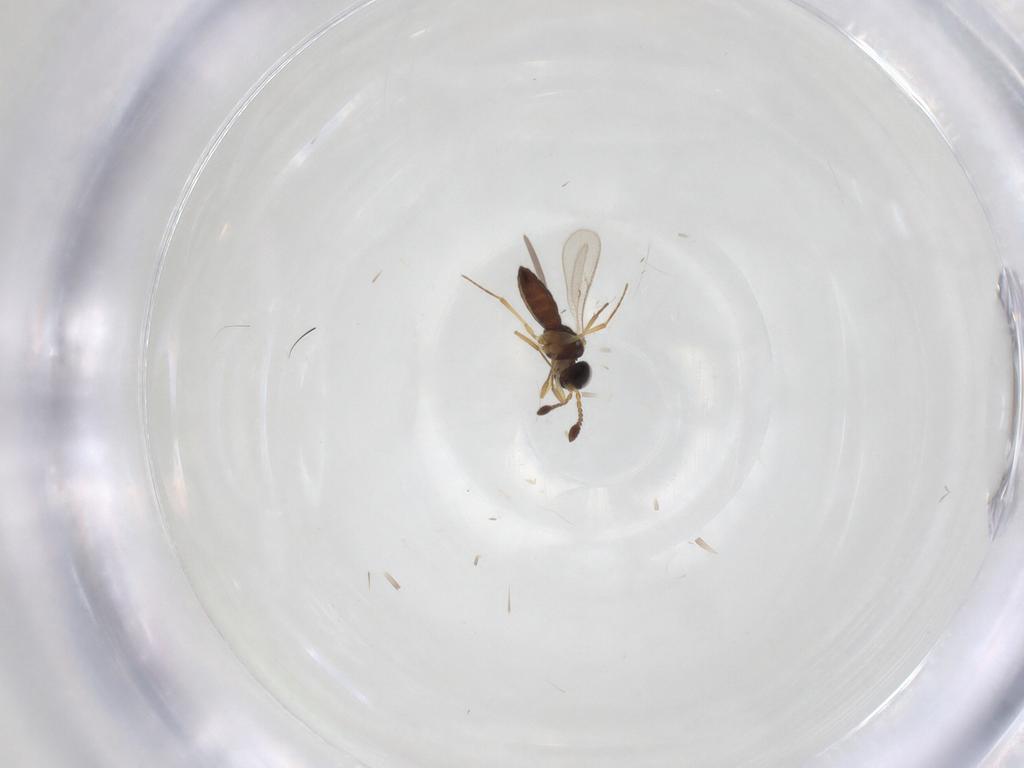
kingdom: Animalia
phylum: Arthropoda
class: Insecta
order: Hymenoptera
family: Scelionidae
